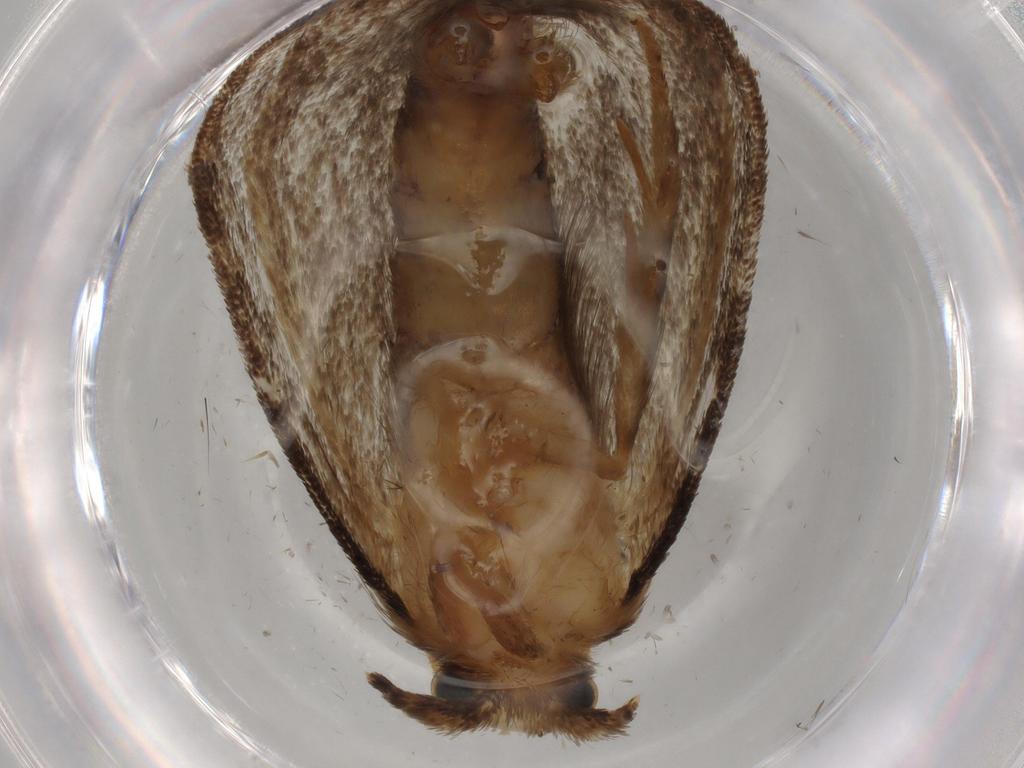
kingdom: Animalia
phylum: Arthropoda
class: Insecta
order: Lepidoptera
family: Tineidae
